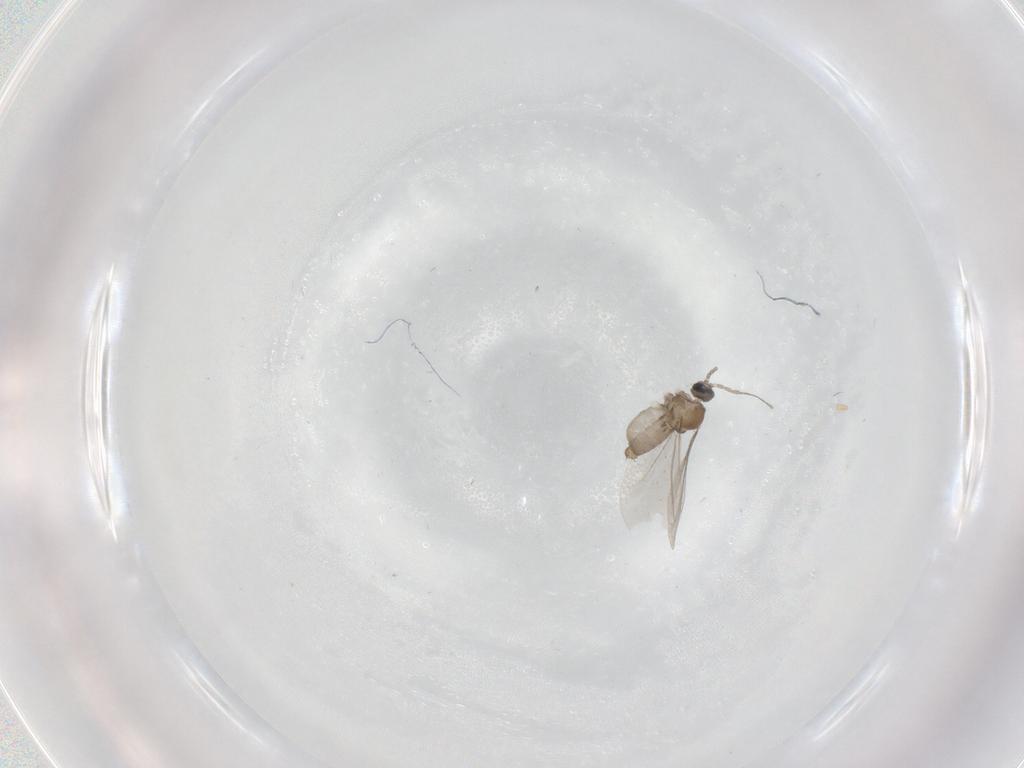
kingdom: Animalia
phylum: Arthropoda
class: Insecta
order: Diptera
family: Cecidomyiidae
